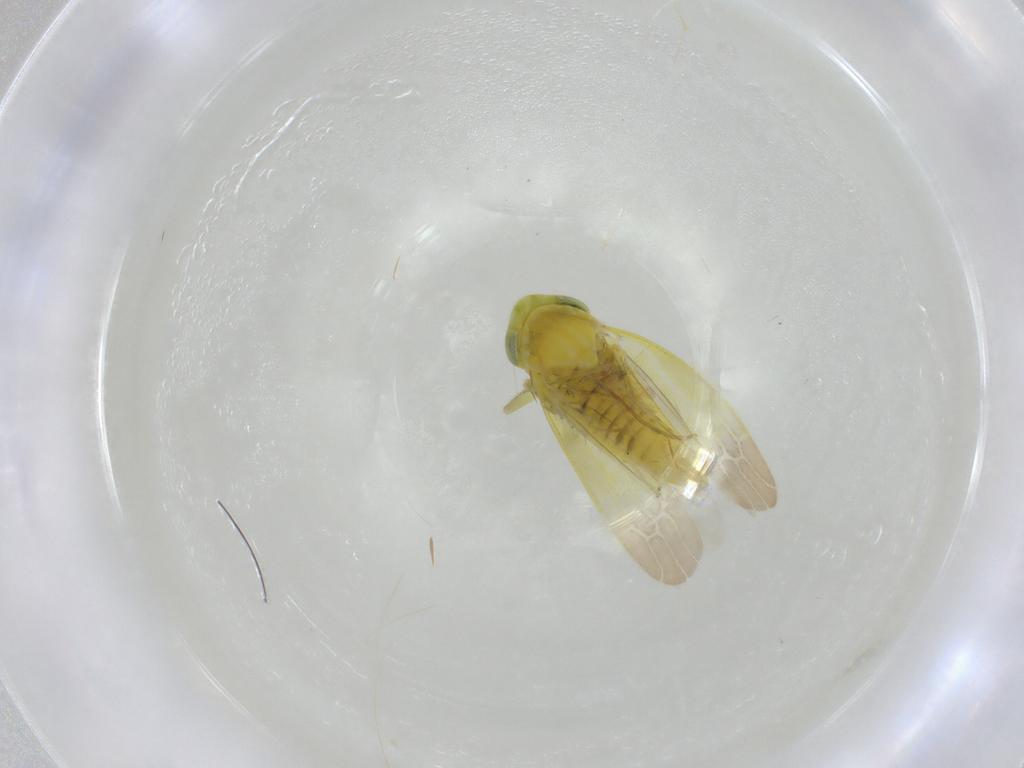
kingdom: Animalia
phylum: Arthropoda
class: Insecta
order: Hemiptera
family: Cicadellidae
